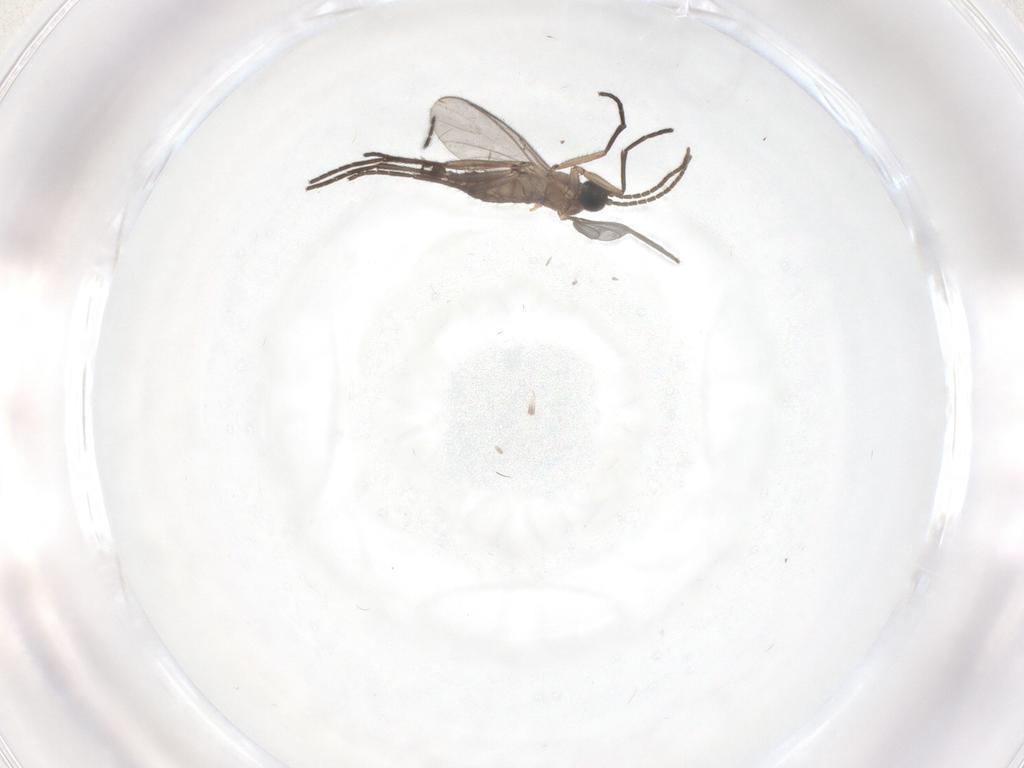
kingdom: Animalia
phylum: Arthropoda
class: Insecta
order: Diptera
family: Sciaridae
